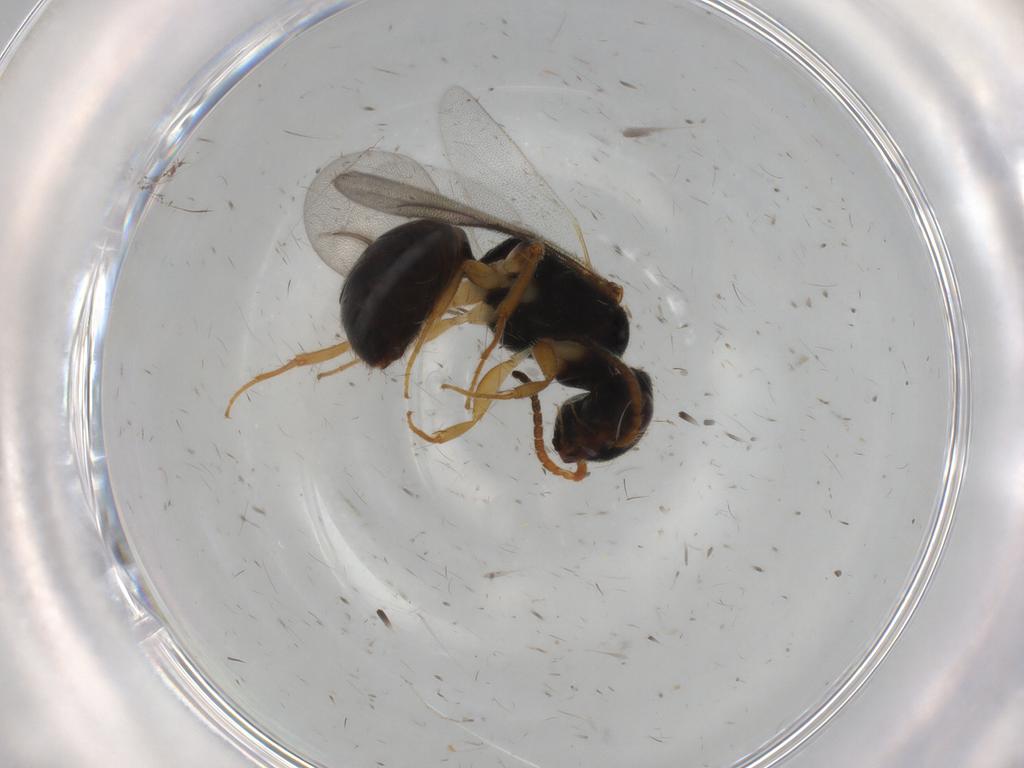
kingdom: Animalia
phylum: Arthropoda
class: Insecta
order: Hymenoptera
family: Bethylidae
